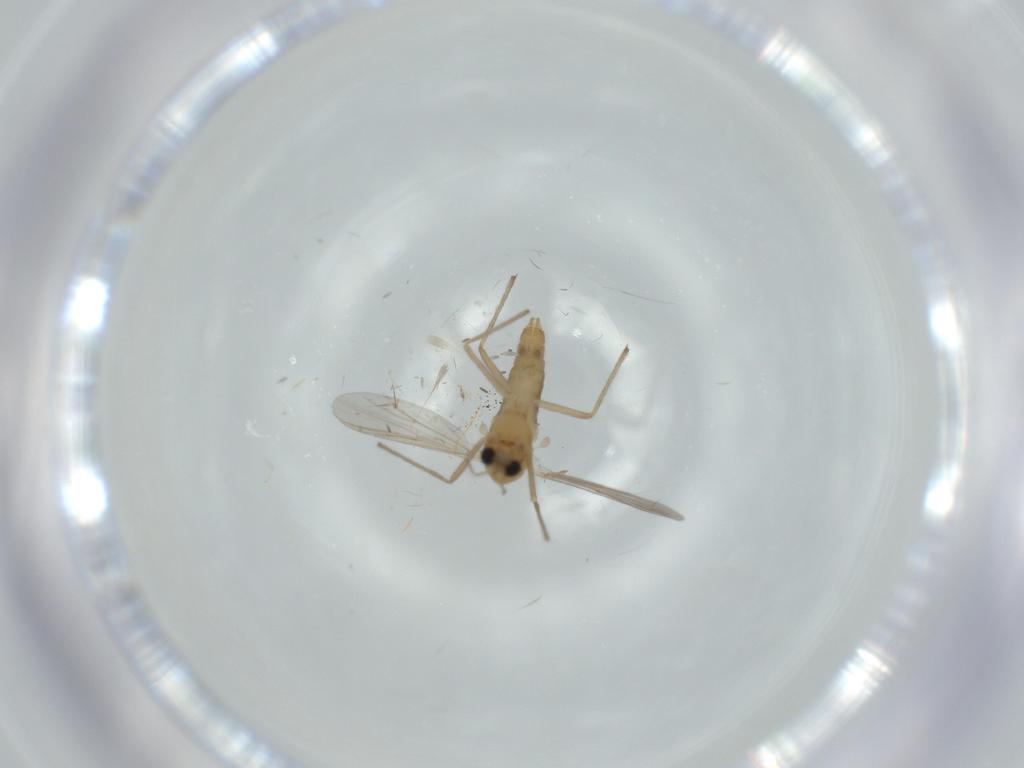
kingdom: Animalia
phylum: Arthropoda
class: Insecta
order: Diptera
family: Chironomidae
